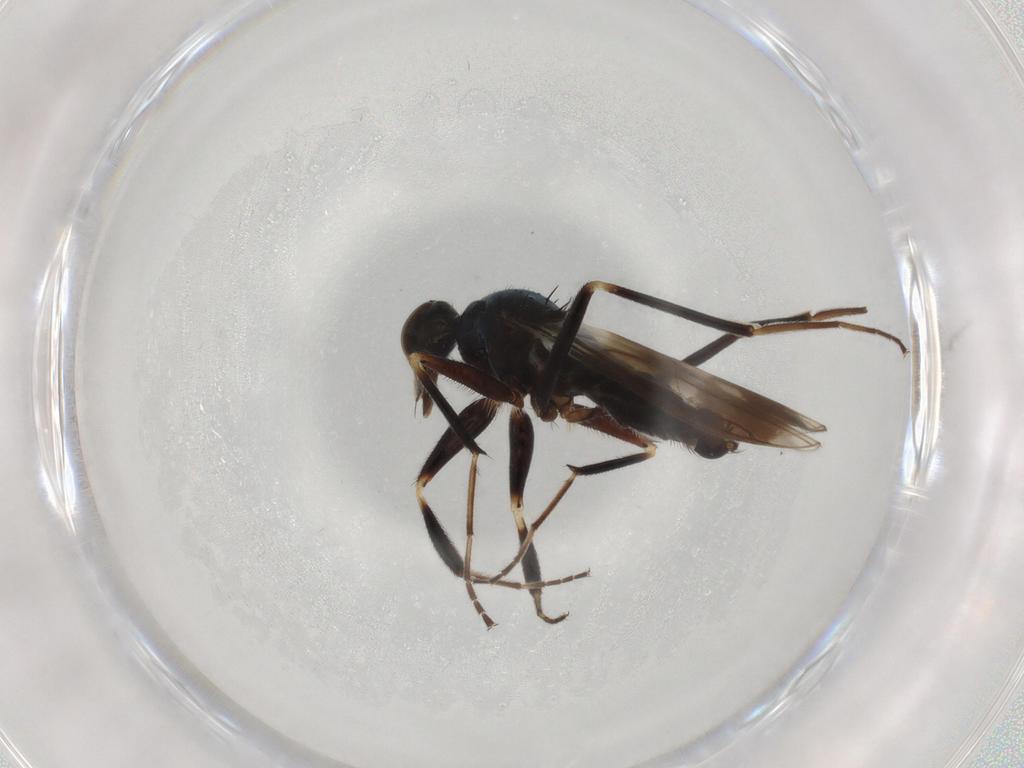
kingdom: Animalia
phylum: Arthropoda
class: Insecta
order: Diptera
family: Hybotidae
